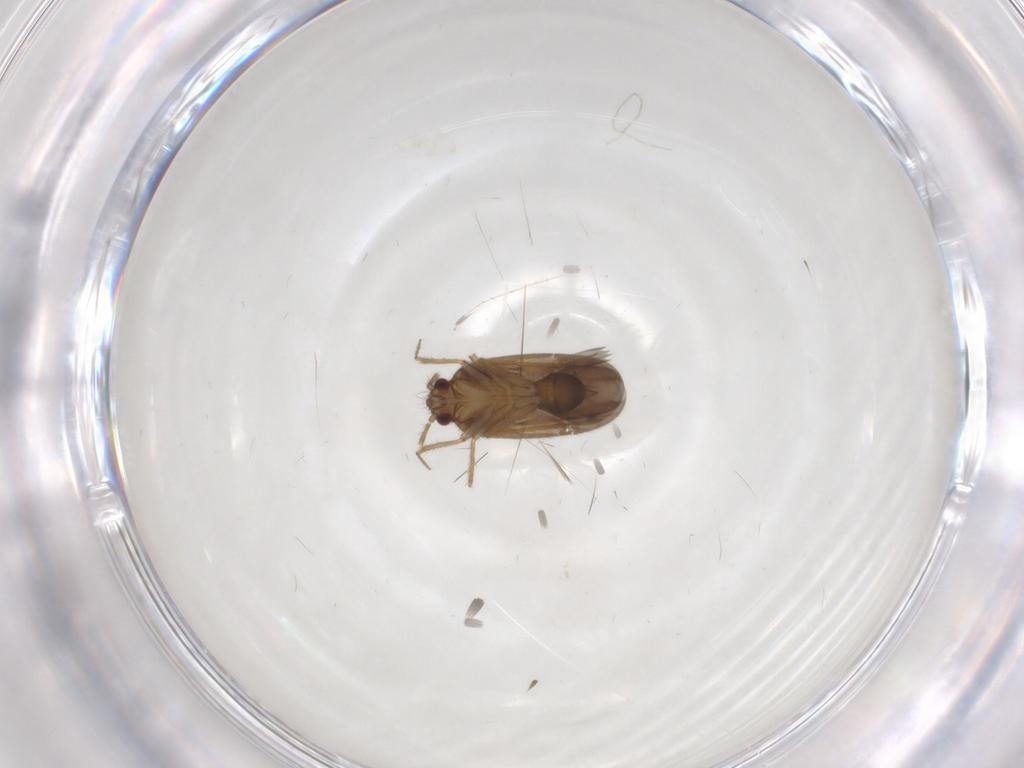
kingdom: Animalia
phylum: Arthropoda
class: Insecta
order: Hemiptera
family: Ceratocombidae
